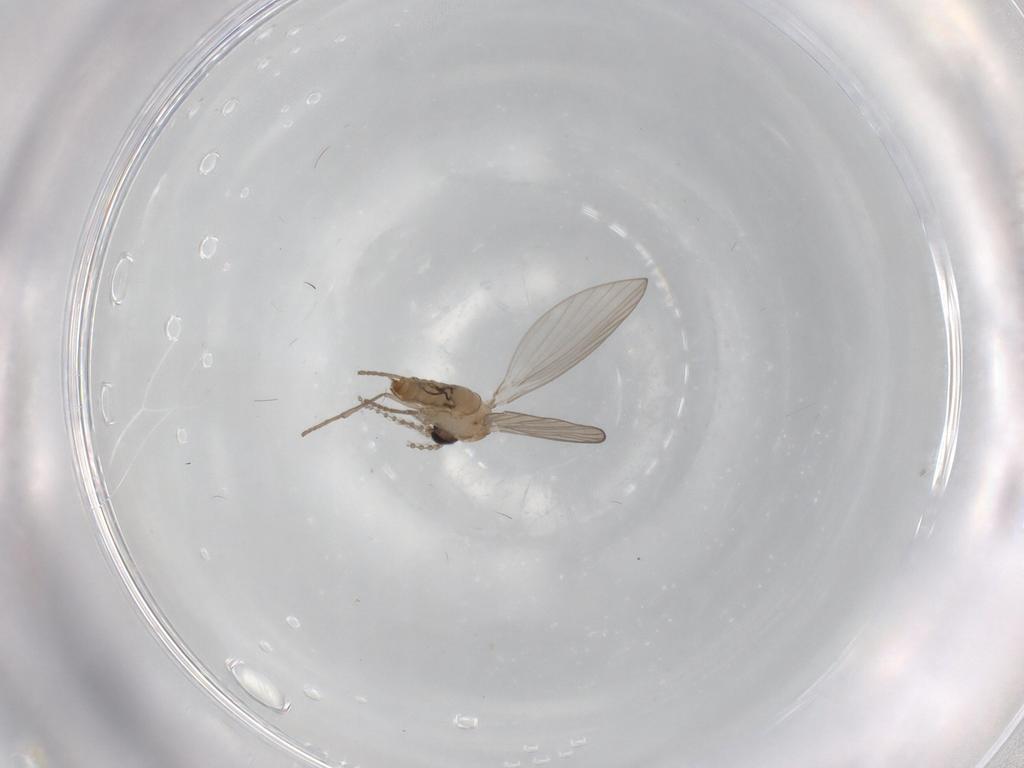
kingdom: Animalia
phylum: Arthropoda
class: Insecta
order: Diptera
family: Psychodidae
